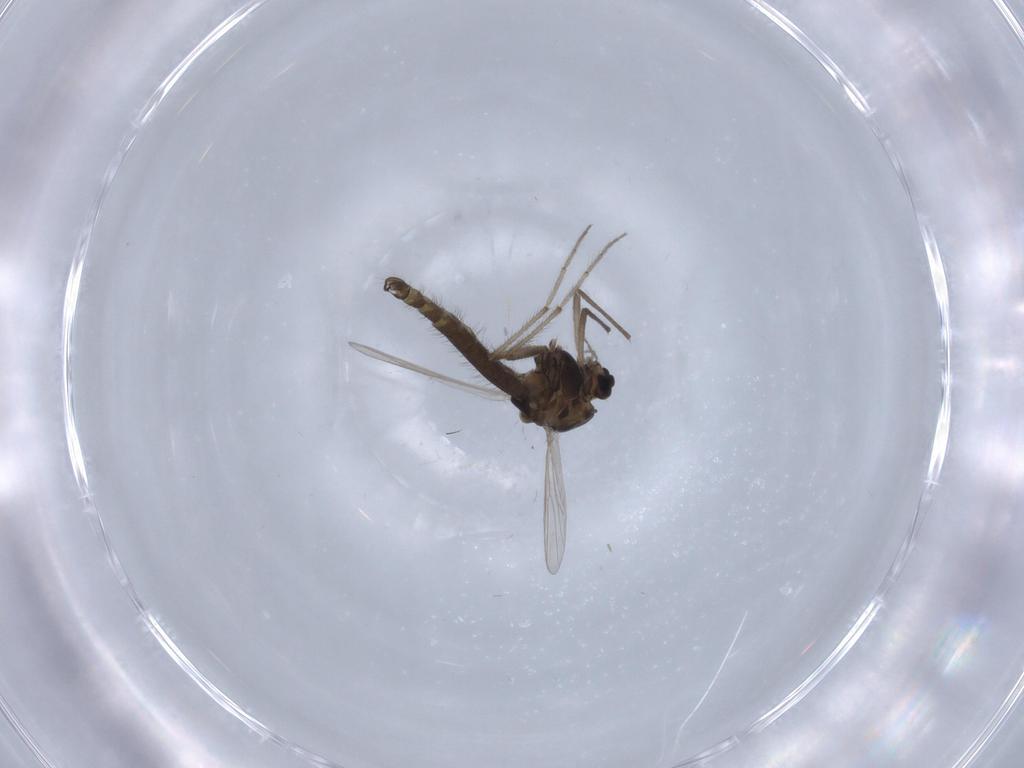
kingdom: Animalia
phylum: Arthropoda
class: Insecta
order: Diptera
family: Chironomidae
